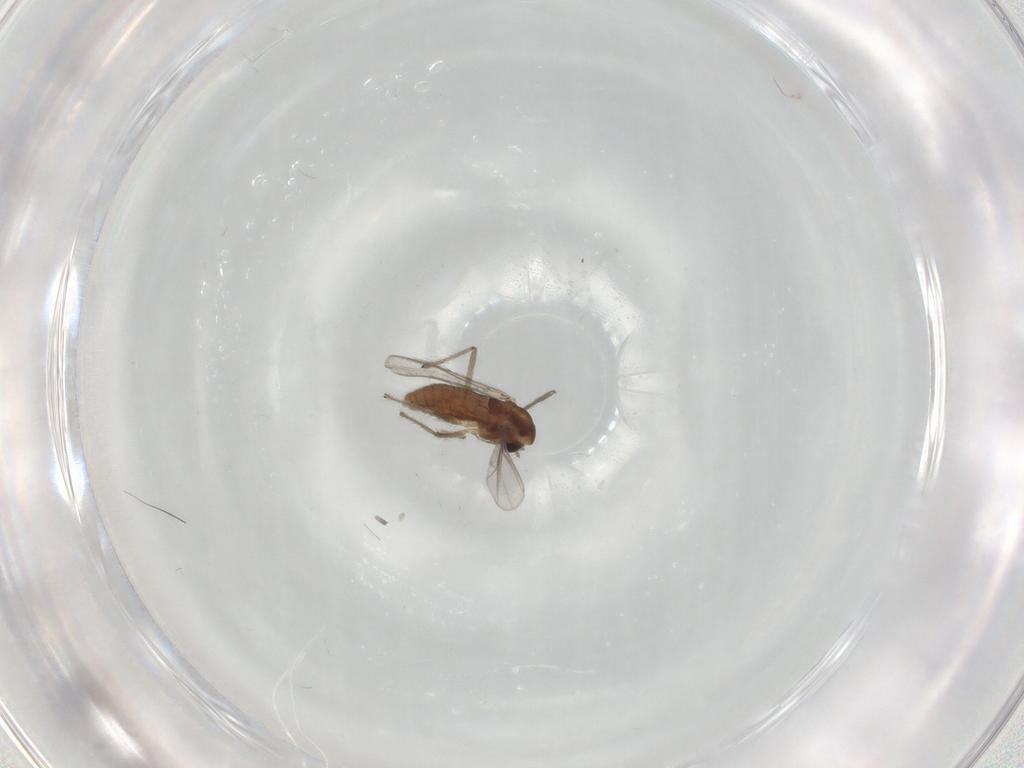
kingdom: Animalia
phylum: Arthropoda
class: Insecta
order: Diptera
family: Chironomidae
